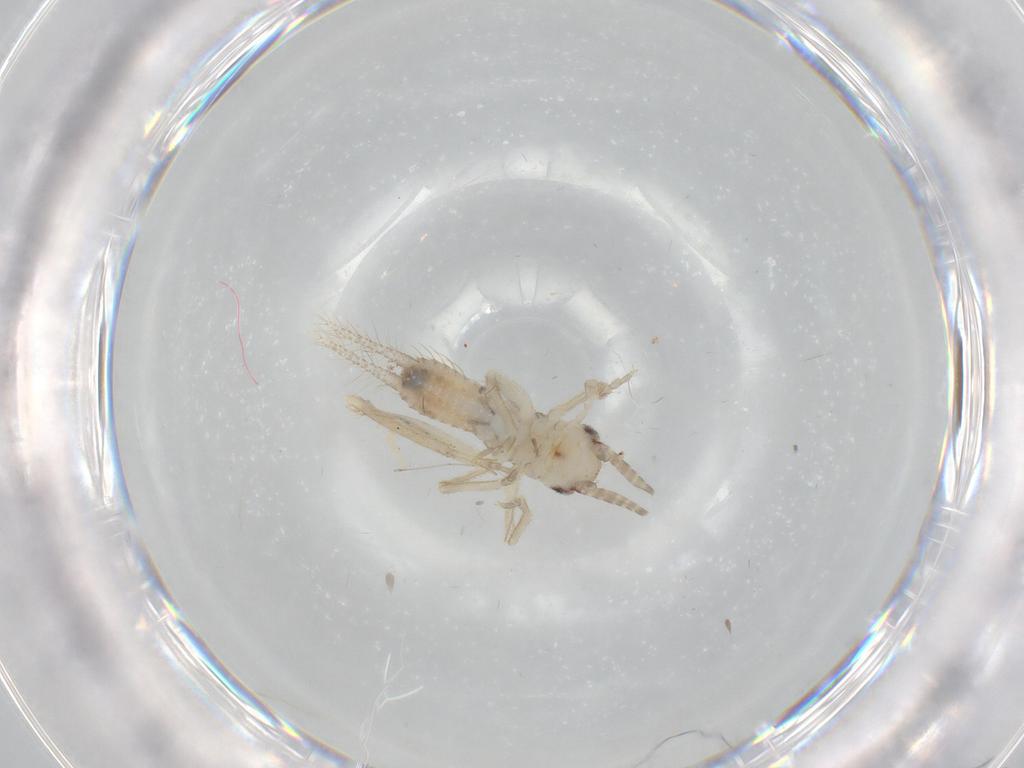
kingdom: Animalia
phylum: Arthropoda
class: Insecta
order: Orthoptera
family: Gryllidae
